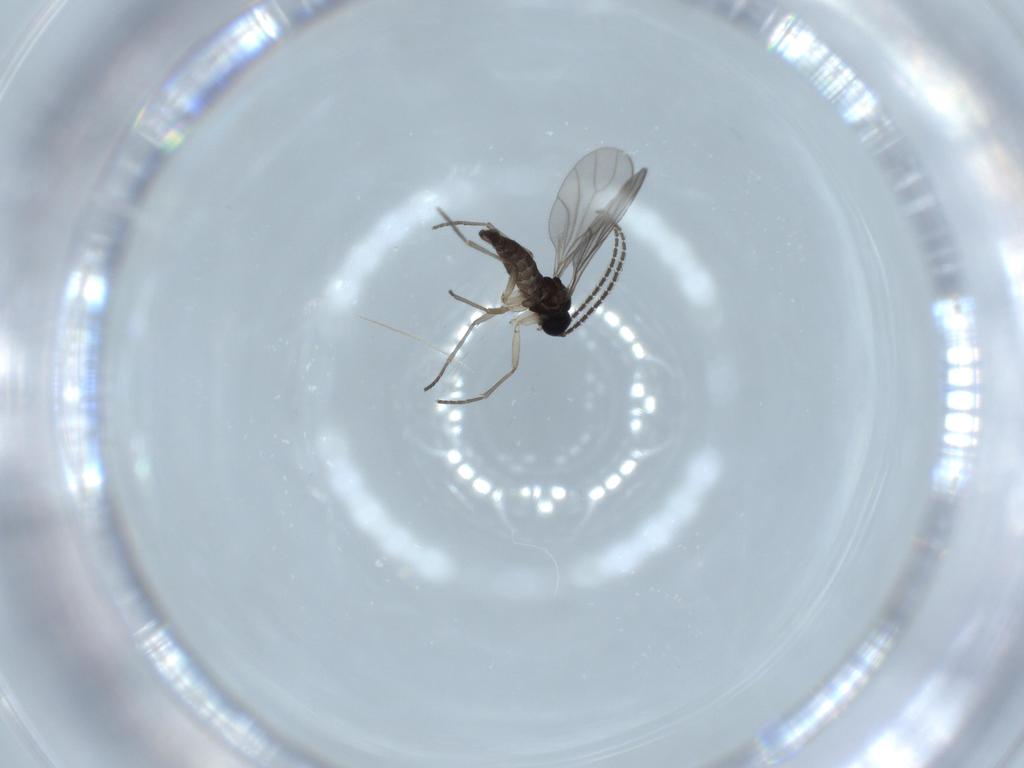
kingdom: Animalia
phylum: Arthropoda
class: Insecta
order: Diptera
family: Sciaridae
